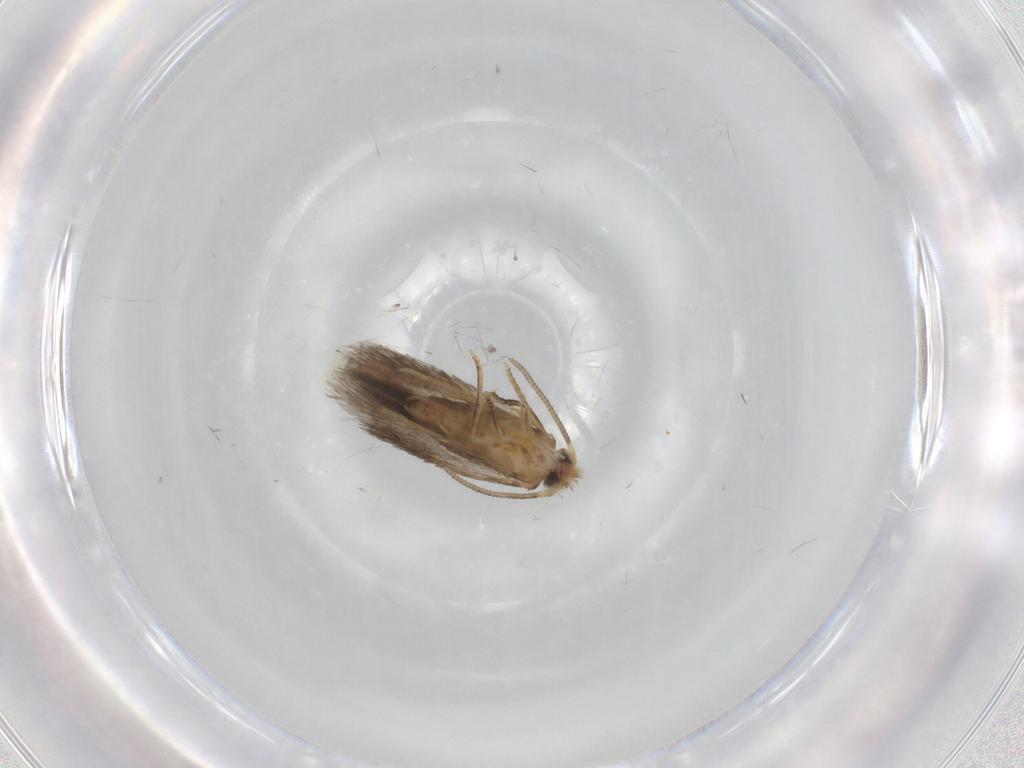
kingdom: Animalia
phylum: Arthropoda
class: Insecta
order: Lepidoptera
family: Nepticulidae
